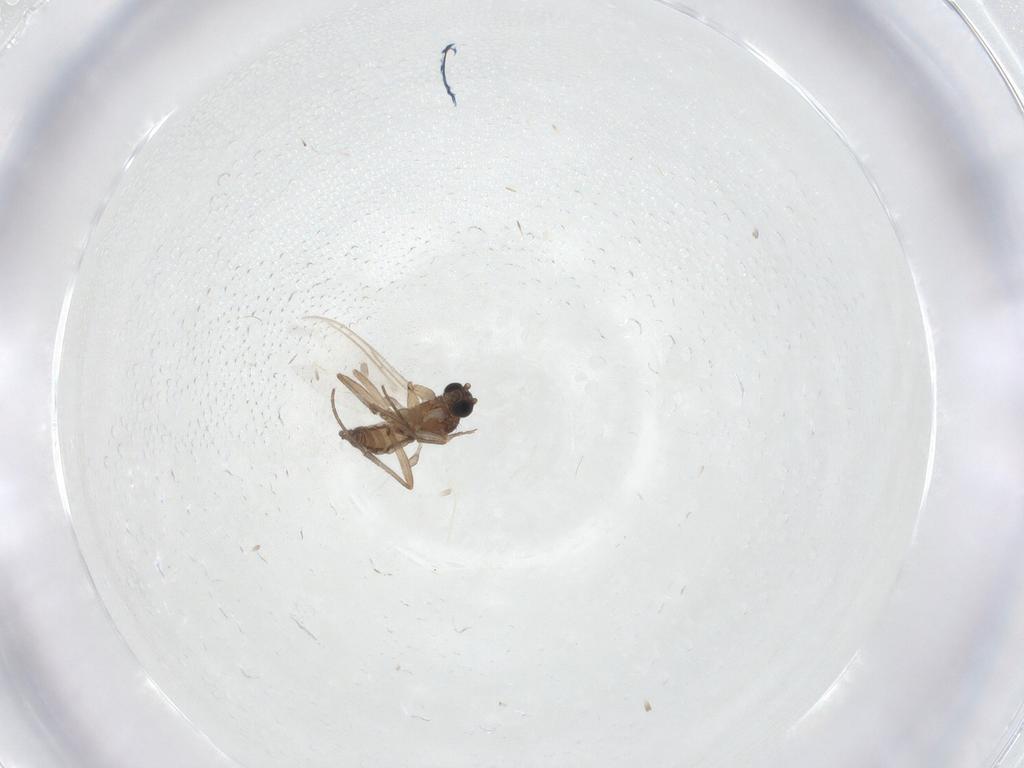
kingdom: Animalia
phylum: Arthropoda
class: Insecta
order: Diptera
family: Sciaridae
